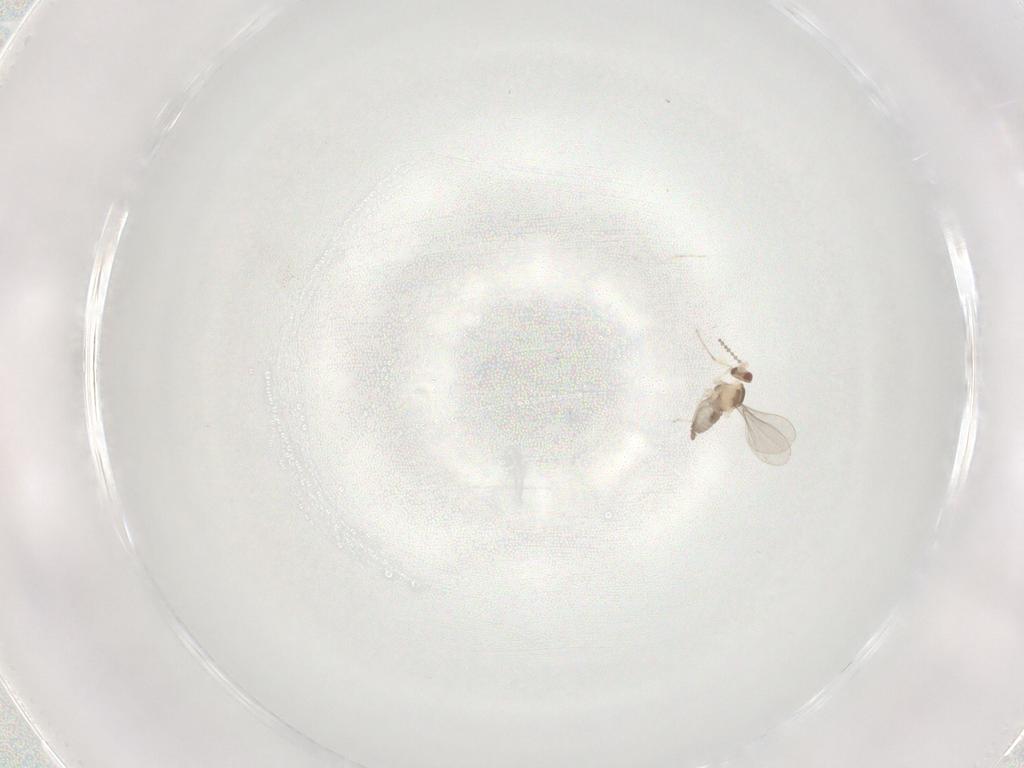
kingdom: Animalia
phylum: Arthropoda
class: Insecta
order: Diptera
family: Cecidomyiidae
